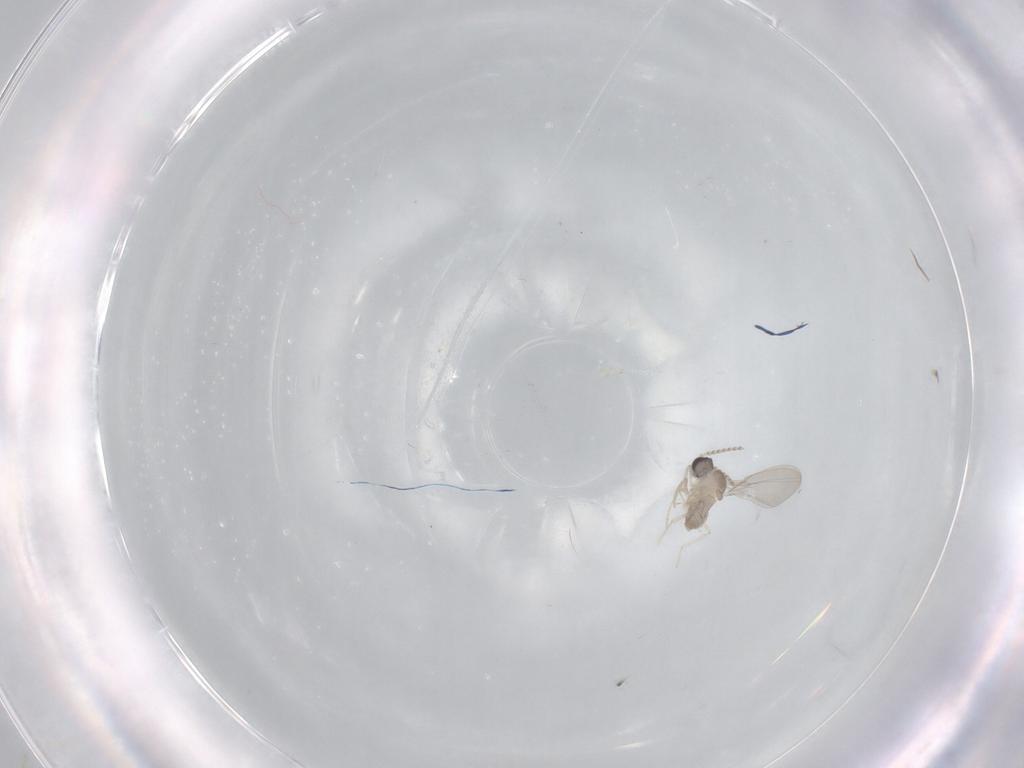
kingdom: Animalia
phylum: Arthropoda
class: Insecta
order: Diptera
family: Cecidomyiidae
